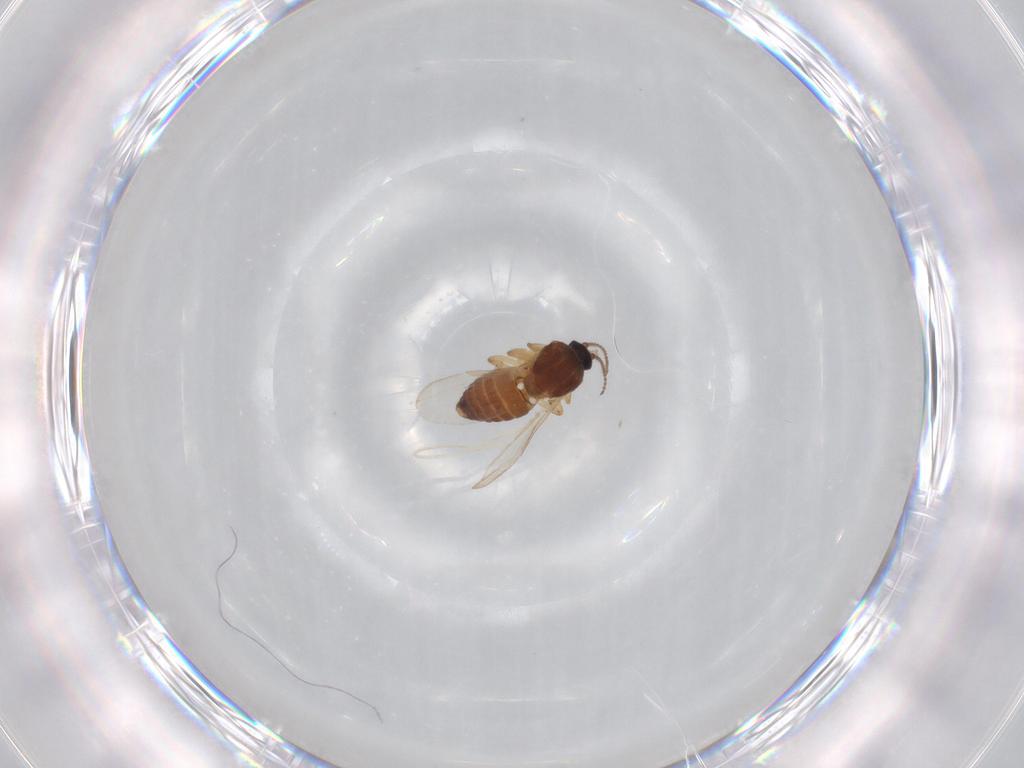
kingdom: Animalia
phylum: Arthropoda
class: Insecta
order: Diptera
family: Ceratopogonidae
